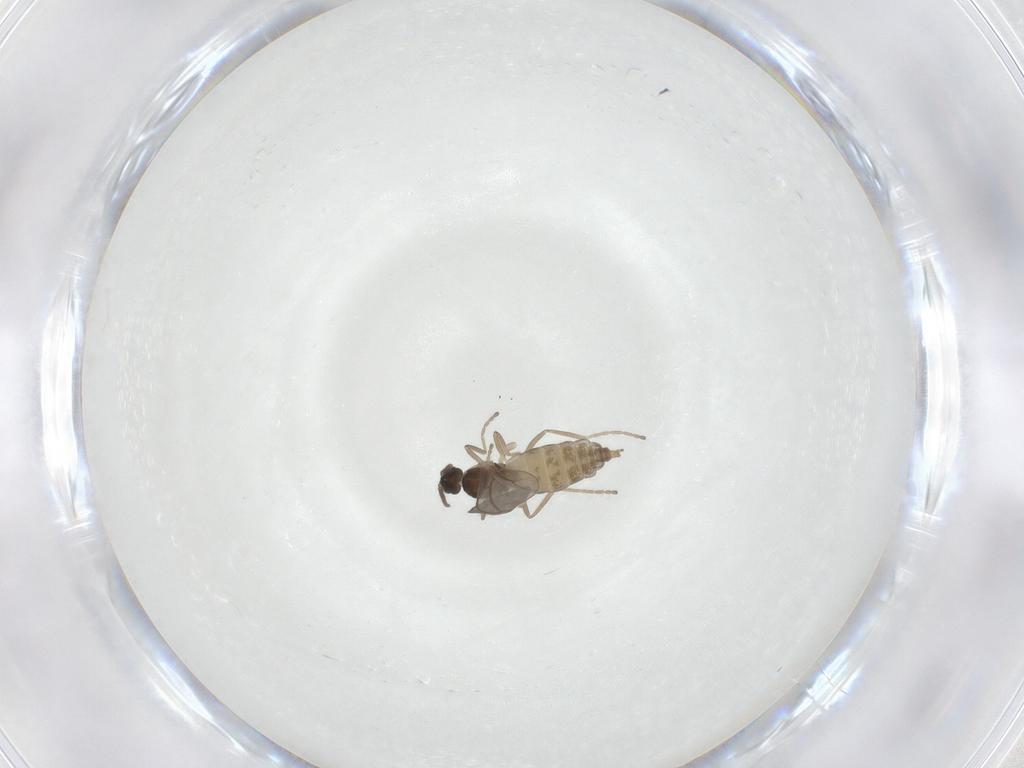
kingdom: Animalia
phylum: Arthropoda
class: Insecta
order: Diptera
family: Cecidomyiidae
